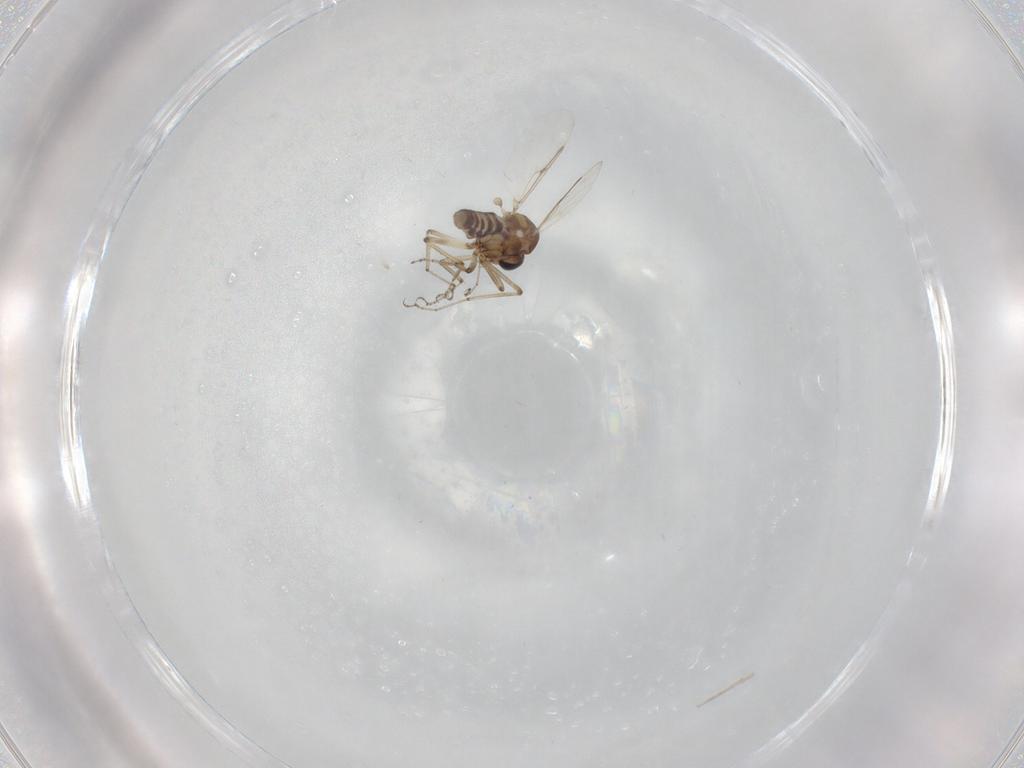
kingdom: Animalia
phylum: Arthropoda
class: Insecta
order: Diptera
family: Ceratopogonidae
